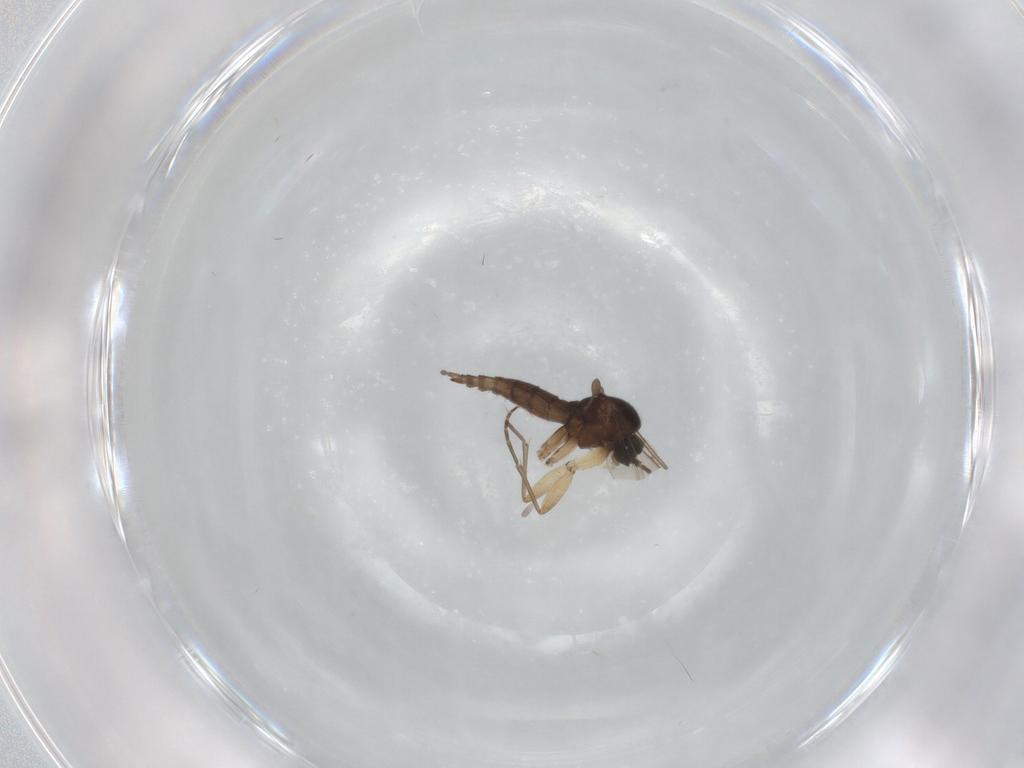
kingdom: Animalia
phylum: Arthropoda
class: Insecta
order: Diptera
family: Sciaridae
